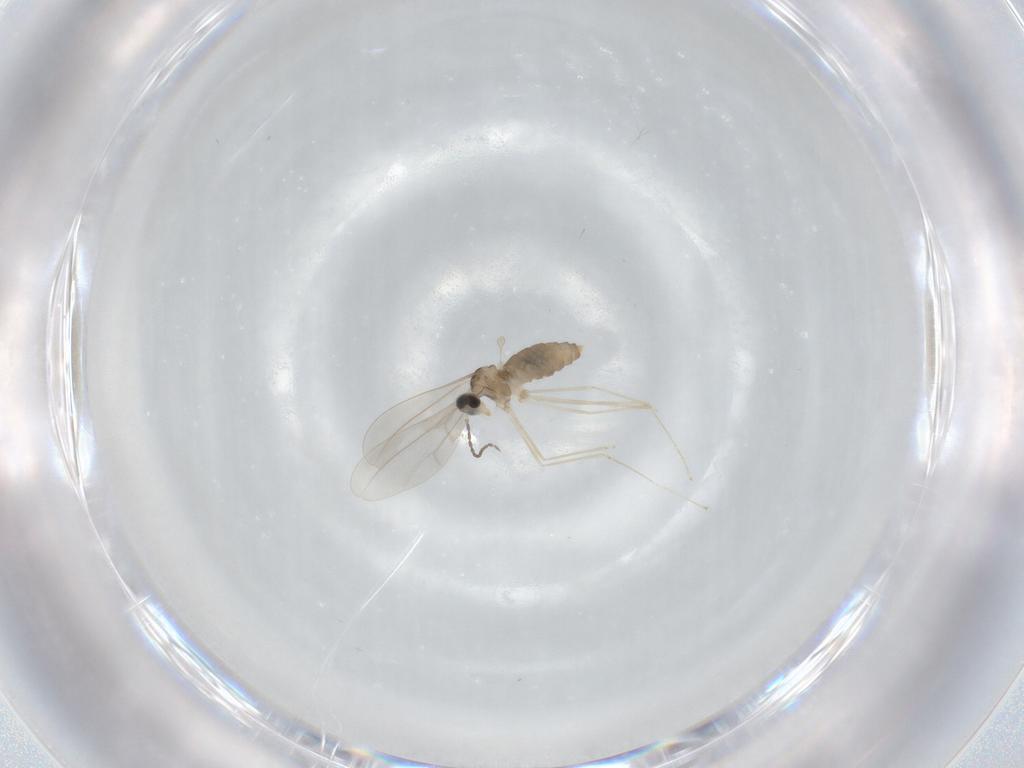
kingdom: Animalia
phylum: Arthropoda
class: Insecta
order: Diptera
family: Cecidomyiidae
